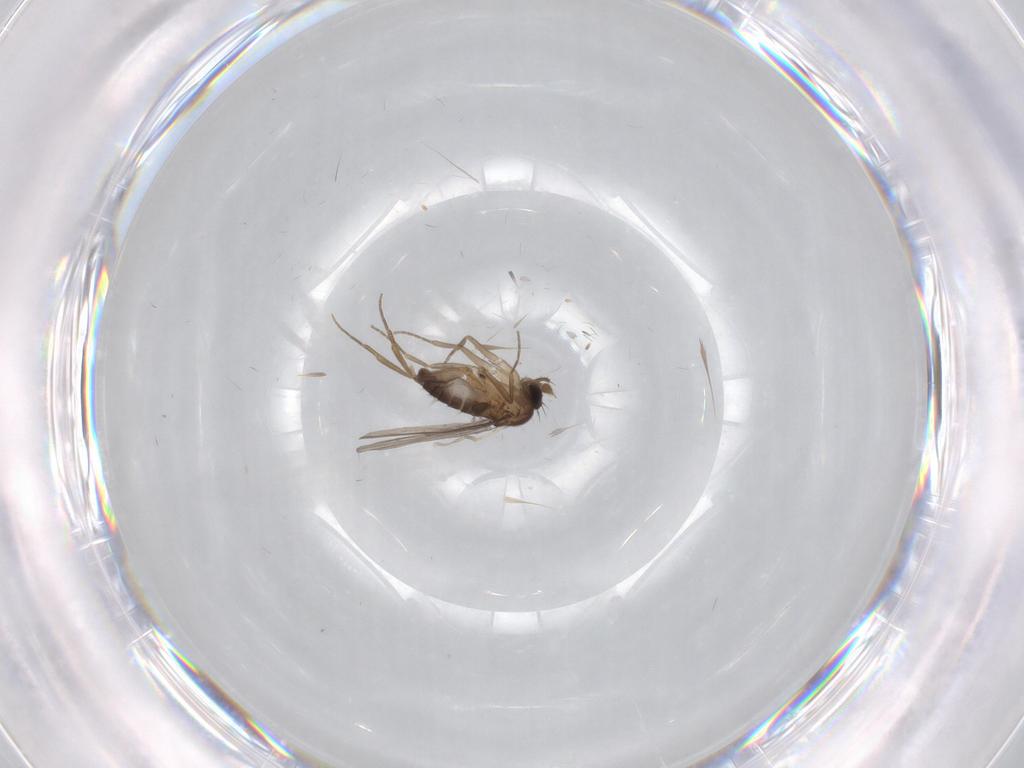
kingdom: Animalia
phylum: Arthropoda
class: Insecta
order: Diptera
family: Phoridae
